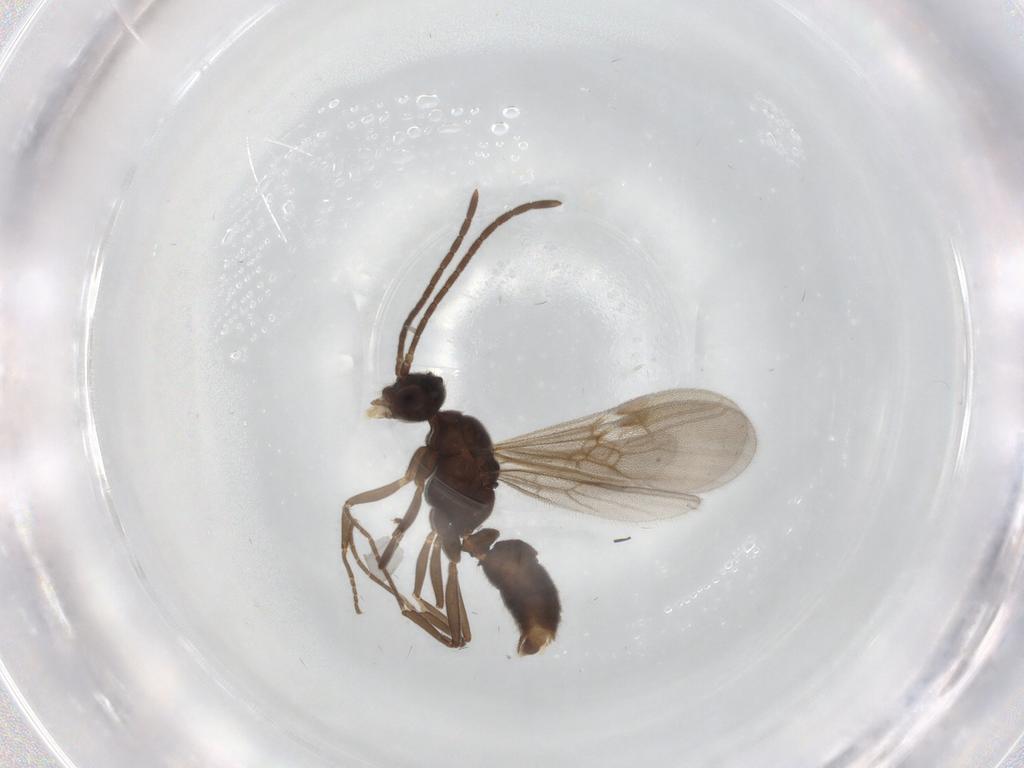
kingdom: Animalia
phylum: Arthropoda
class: Insecta
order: Hymenoptera
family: Formicidae
